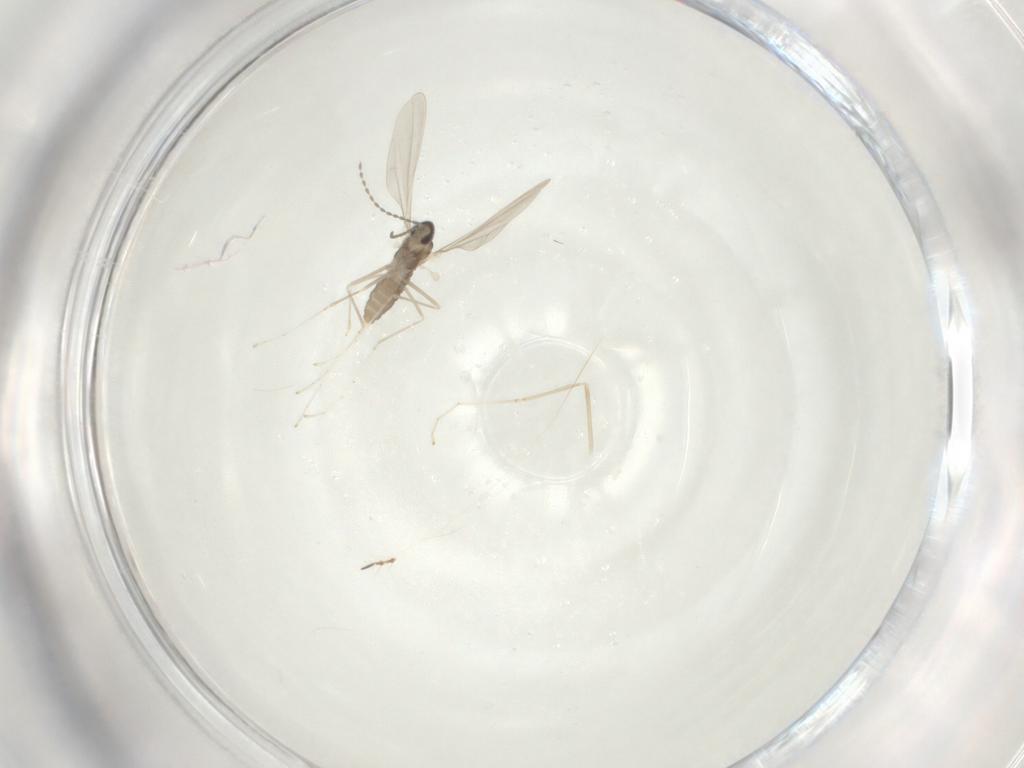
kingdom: Animalia
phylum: Arthropoda
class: Insecta
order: Diptera
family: Cecidomyiidae
